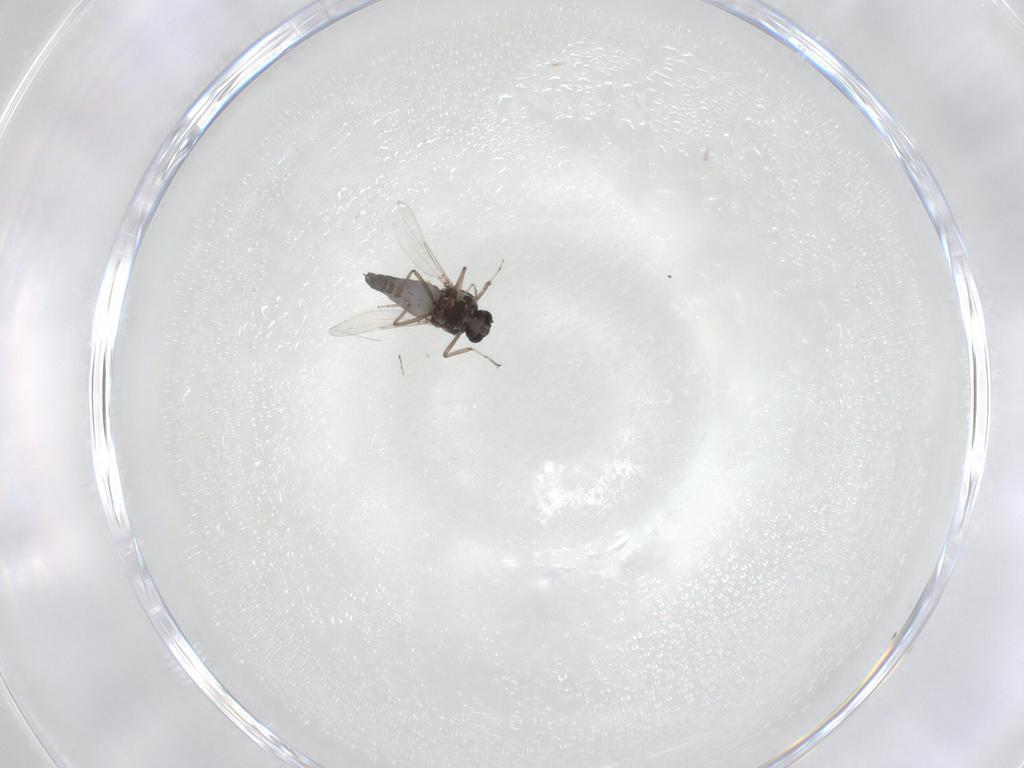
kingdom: Animalia
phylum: Arthropoda
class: Insecta
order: Diptera
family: Ceratopogonidae
